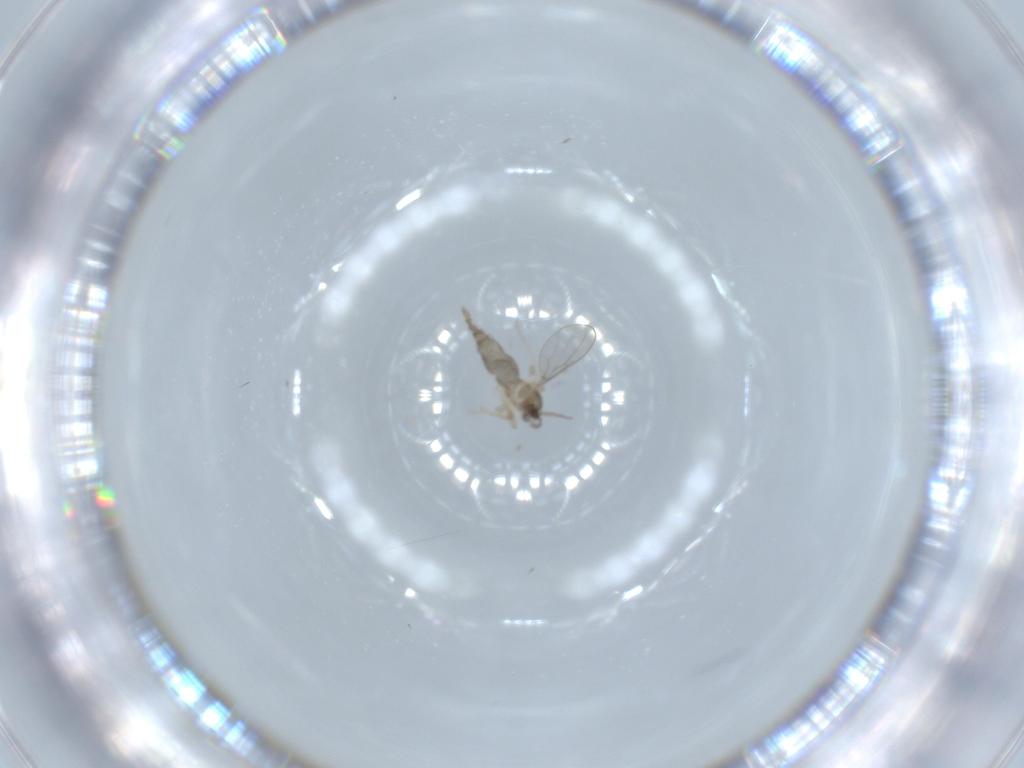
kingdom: Animalia
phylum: Arthropoda
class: Insecta
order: Diptera
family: Cecidomyiidae
